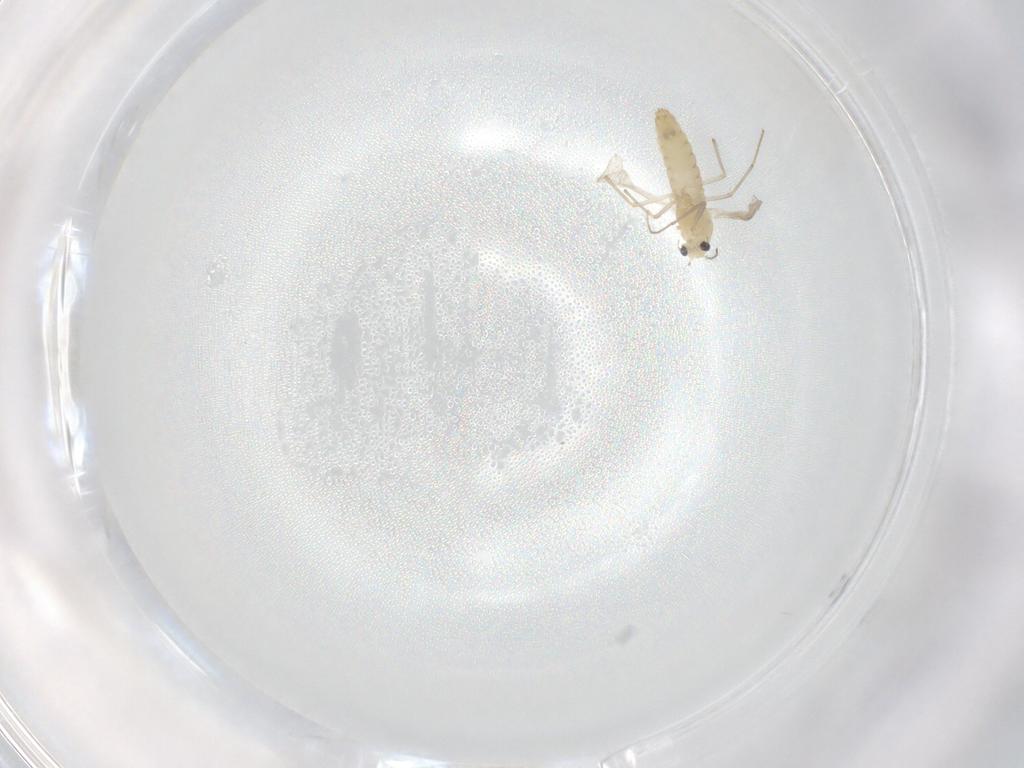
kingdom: Animalia
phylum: Arthropoda
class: Insecta
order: Diptera
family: Chironomidae
